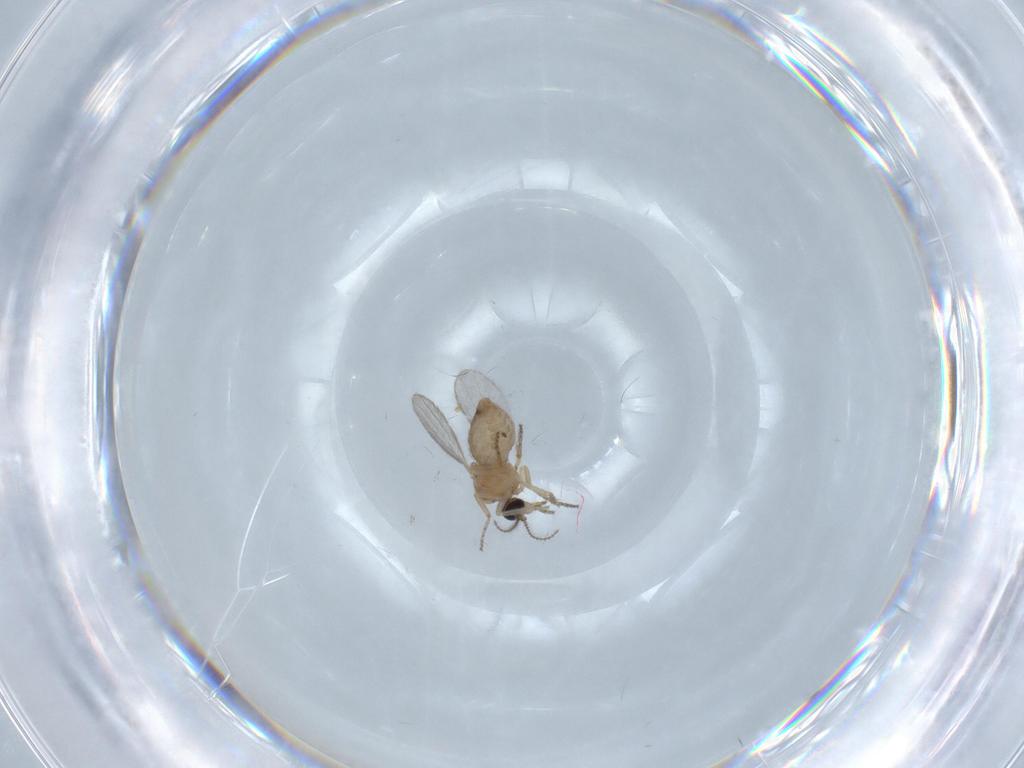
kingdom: Animalia
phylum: Arthropoda
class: Insecta
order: Diptera
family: Ceratopogonidae
